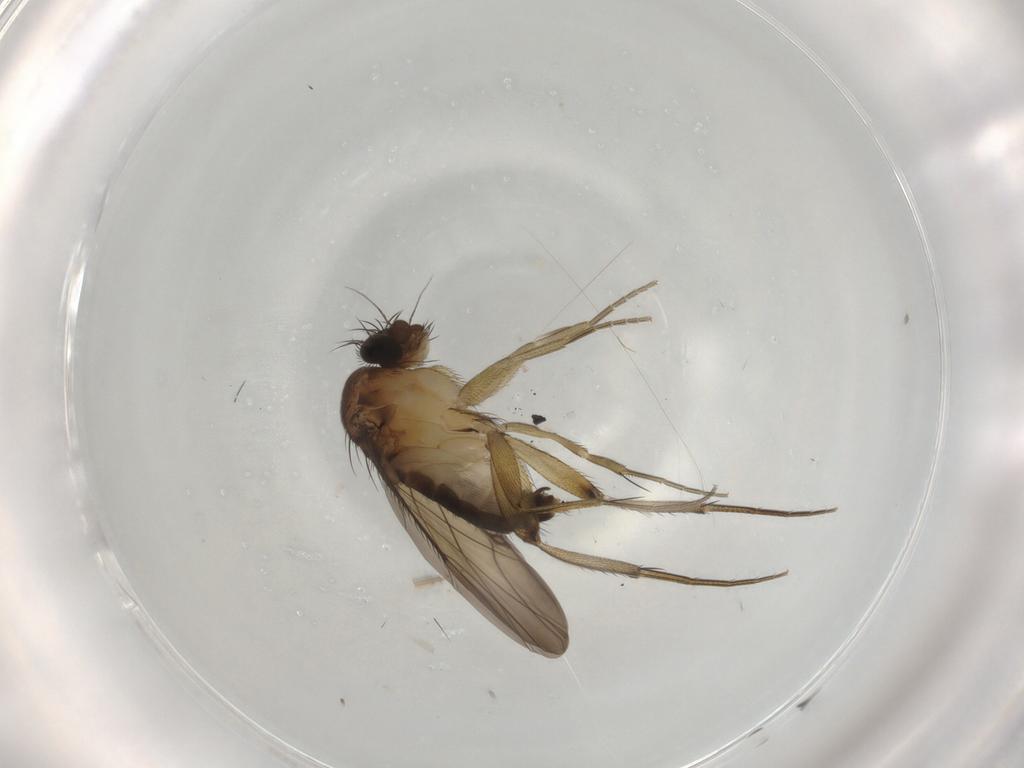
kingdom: Animalia
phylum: Arthropoda
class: Insecta
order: Diptera
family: Phoridae
